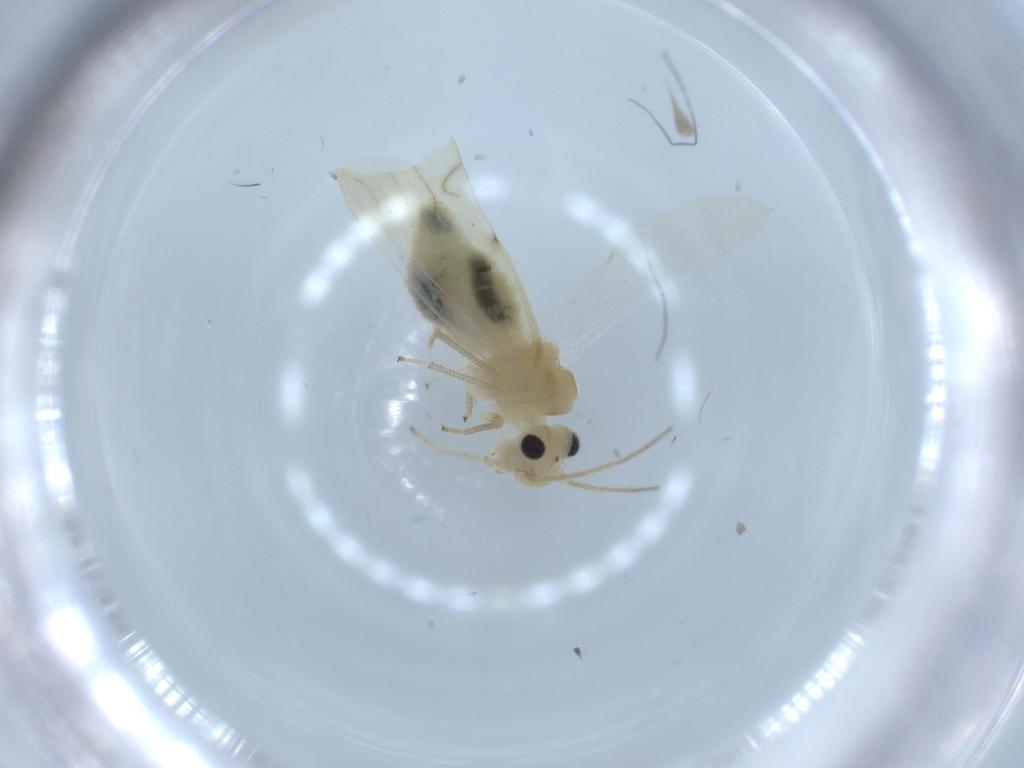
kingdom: Animalia
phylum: Arthropoda
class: Insecta
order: Psocodea
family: Caeciliusidae
